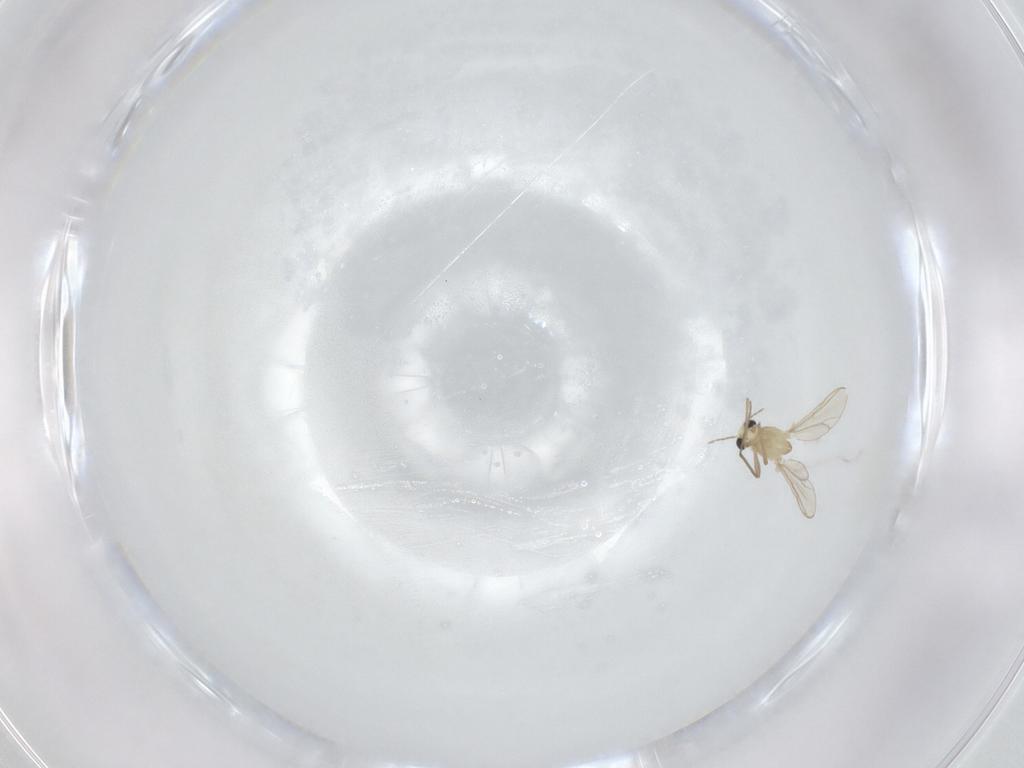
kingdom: Animalia
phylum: Arthropoda
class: Insecta
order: Diptera
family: Chironomidae
